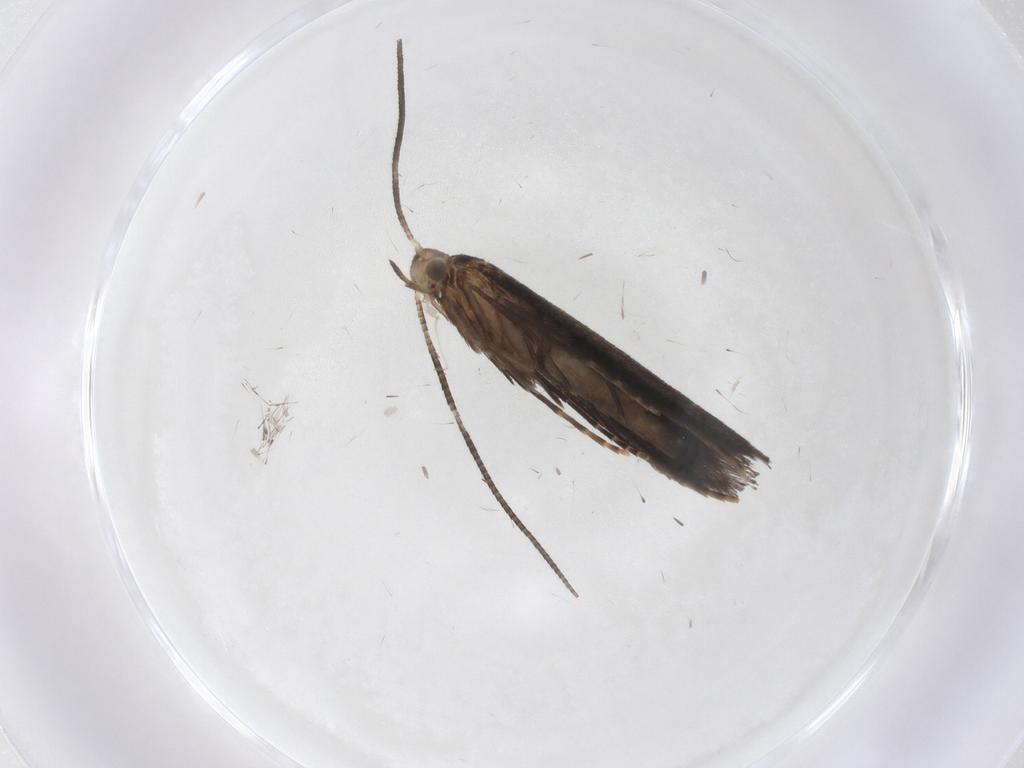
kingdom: Animalia
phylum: Arthropoda
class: Insecta
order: Lepidoptera
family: Gracillariidae
